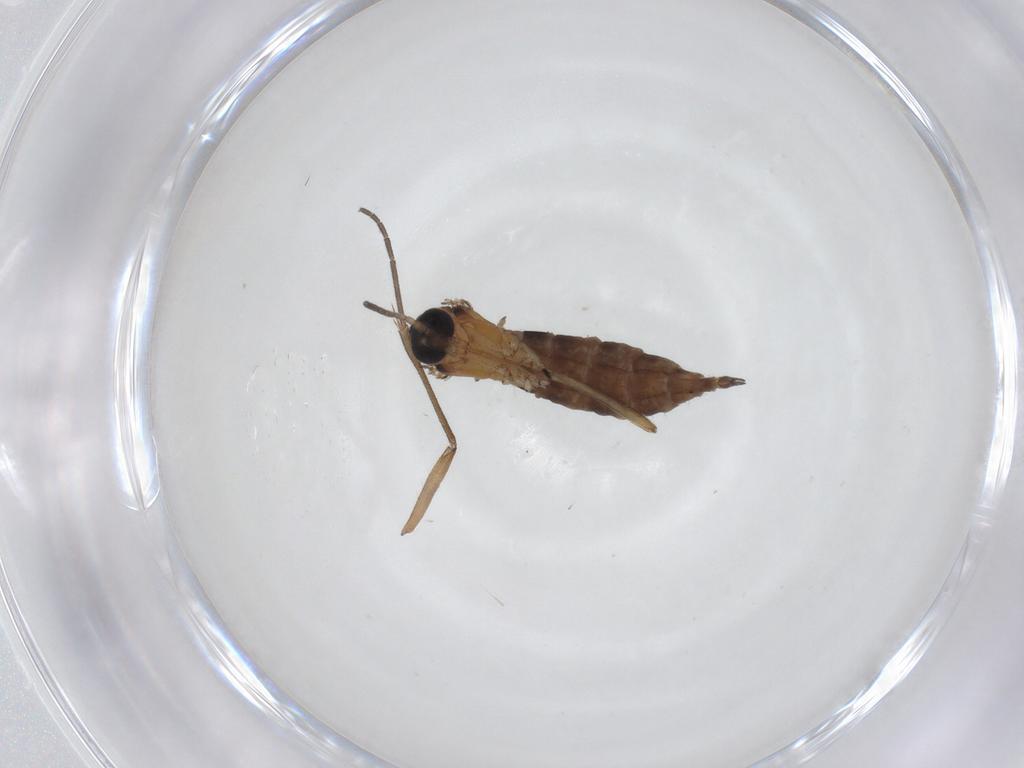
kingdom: Animalia
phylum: Arthropoda
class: Insecta
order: Diptera
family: Sciaridae
